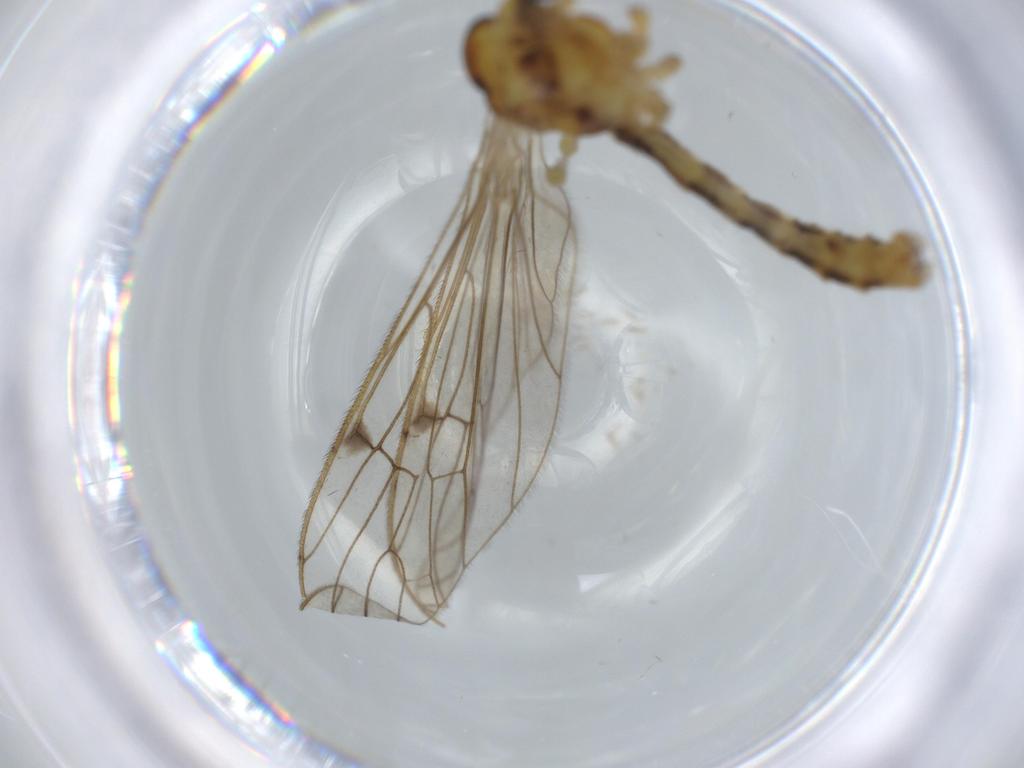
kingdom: Animalia
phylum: Arthropoda
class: Insecta
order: Diptera
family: Limoniidae
